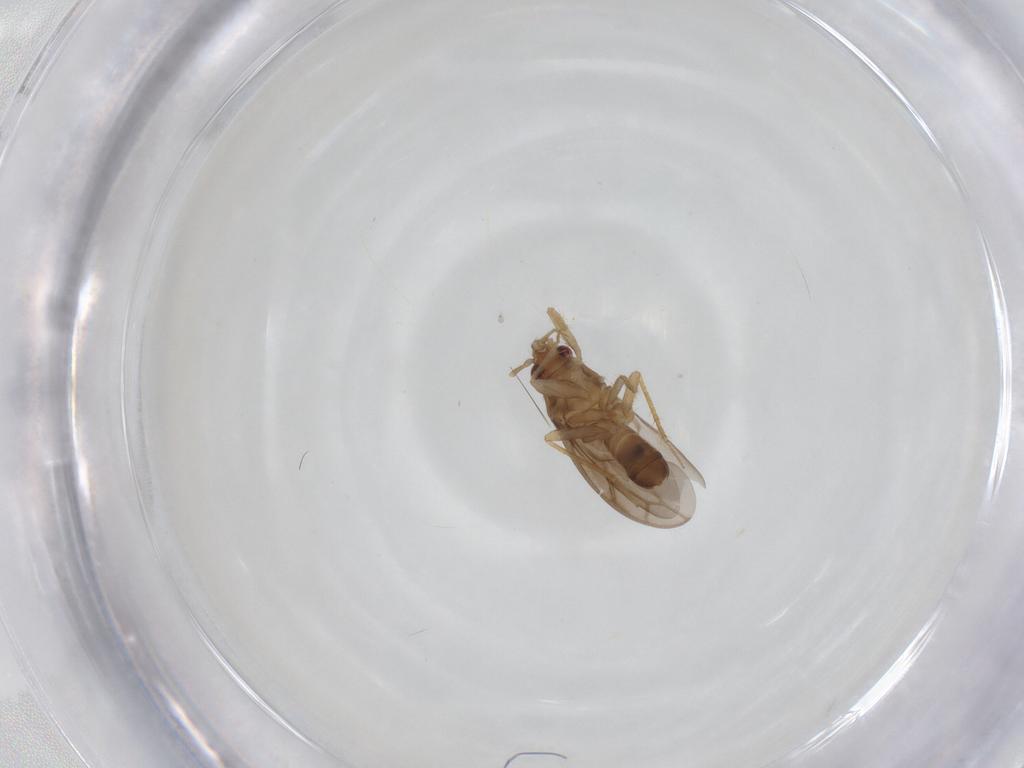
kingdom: Animalia
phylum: Arthropoda
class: Insecta
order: Hemiptera
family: Ceratocombidae
